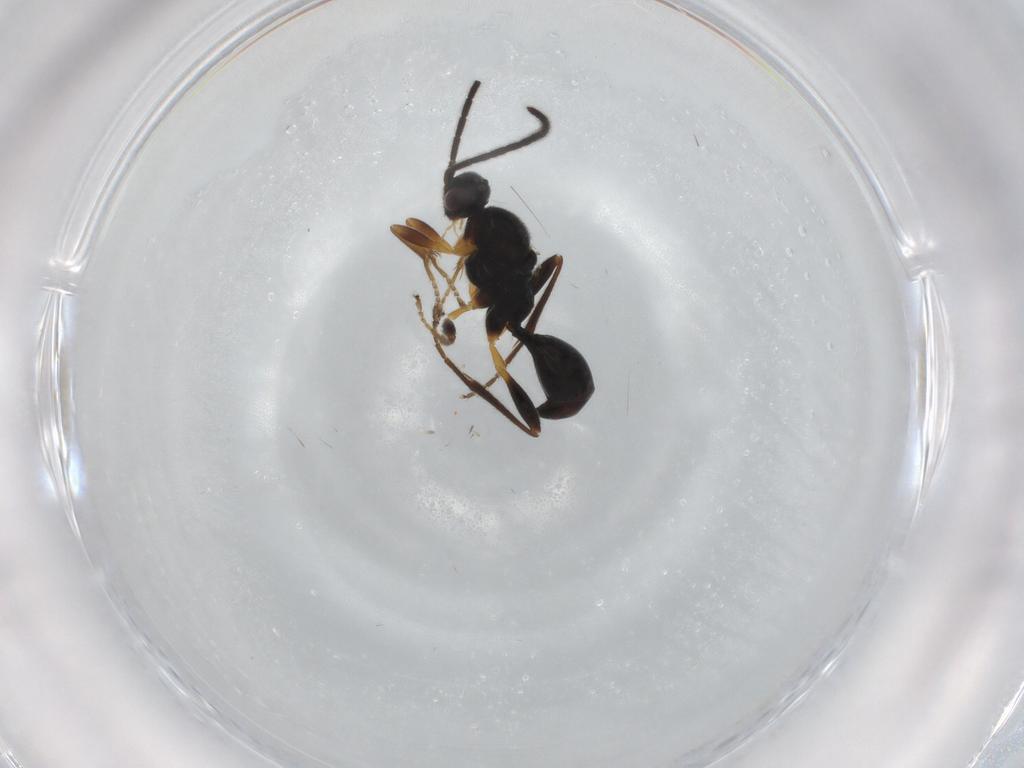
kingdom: Animalia
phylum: Arthropoda
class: Insecta
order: Hymenoptera
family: Proctotrupidae
